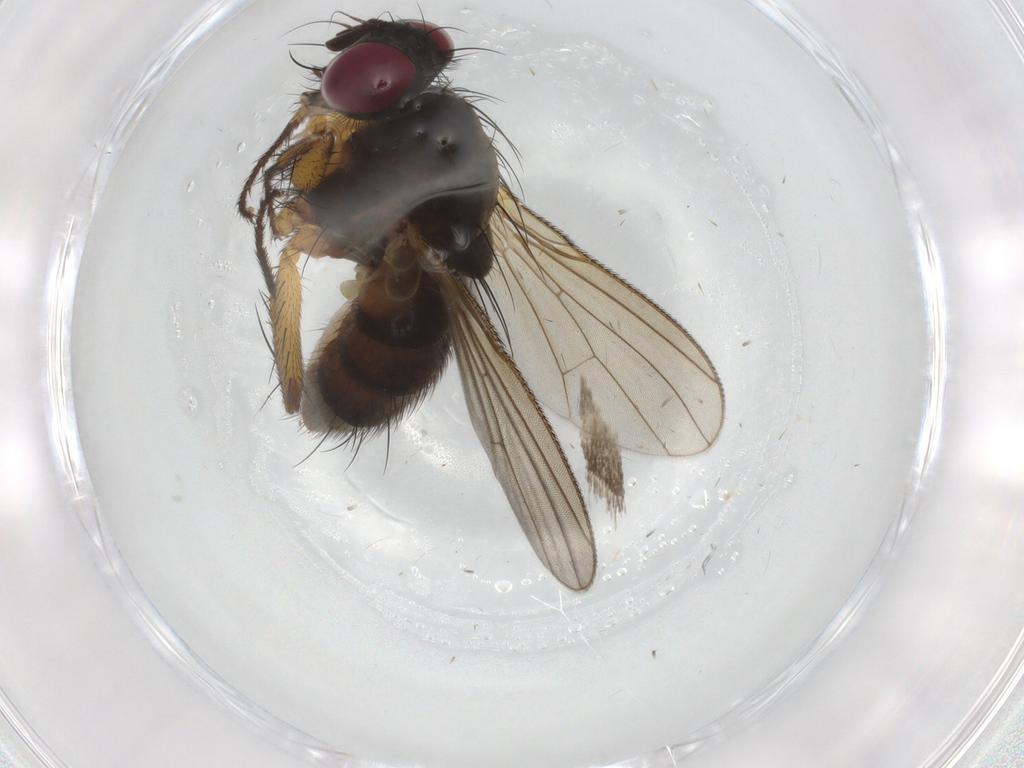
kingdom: Animalia
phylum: Arthropoda
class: Insecta
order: Diptera
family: Muscidae
